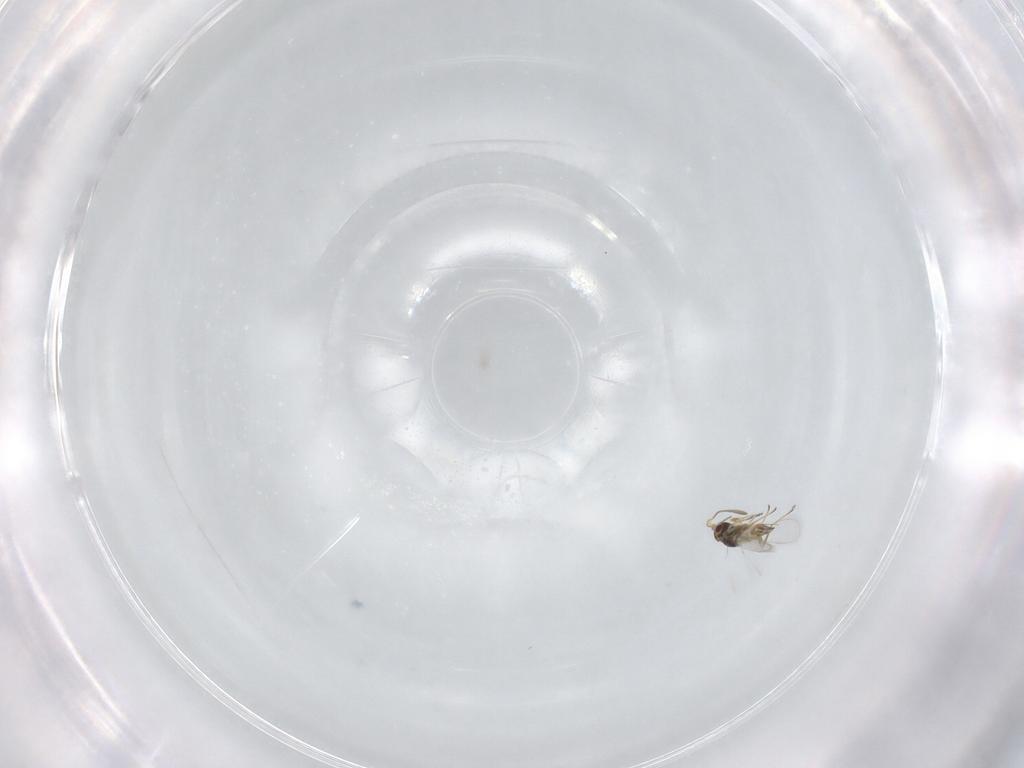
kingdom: Animalia
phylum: Arthropoda
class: Insecta
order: Hymenoptera
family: Mymaridae
